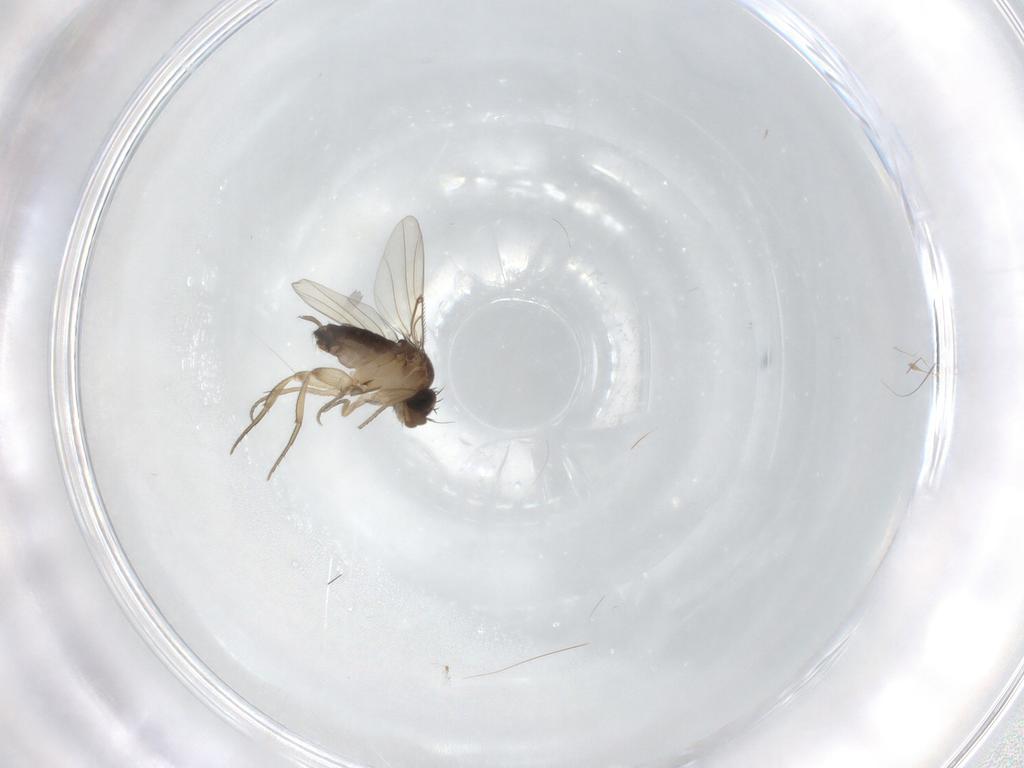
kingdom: Animalia
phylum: Arthropoda
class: Insecta
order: Diptera
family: Phoridae
